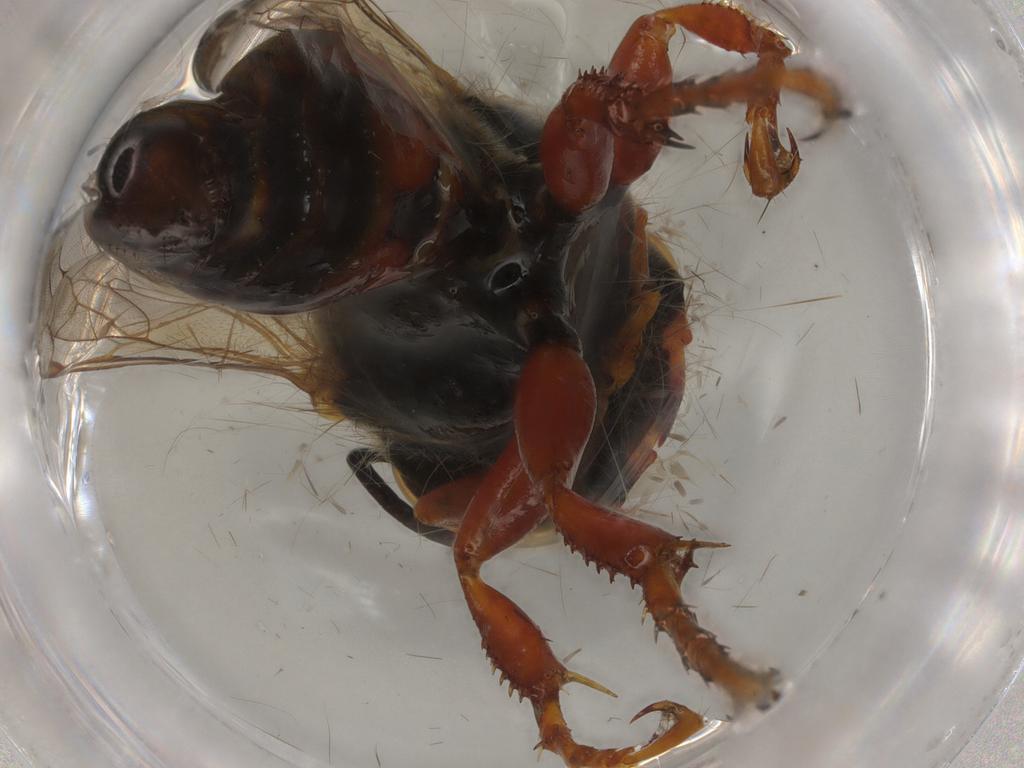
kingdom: Animalia
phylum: Arthropoda
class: Insecta
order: Hymenoptera
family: Crabronidae
